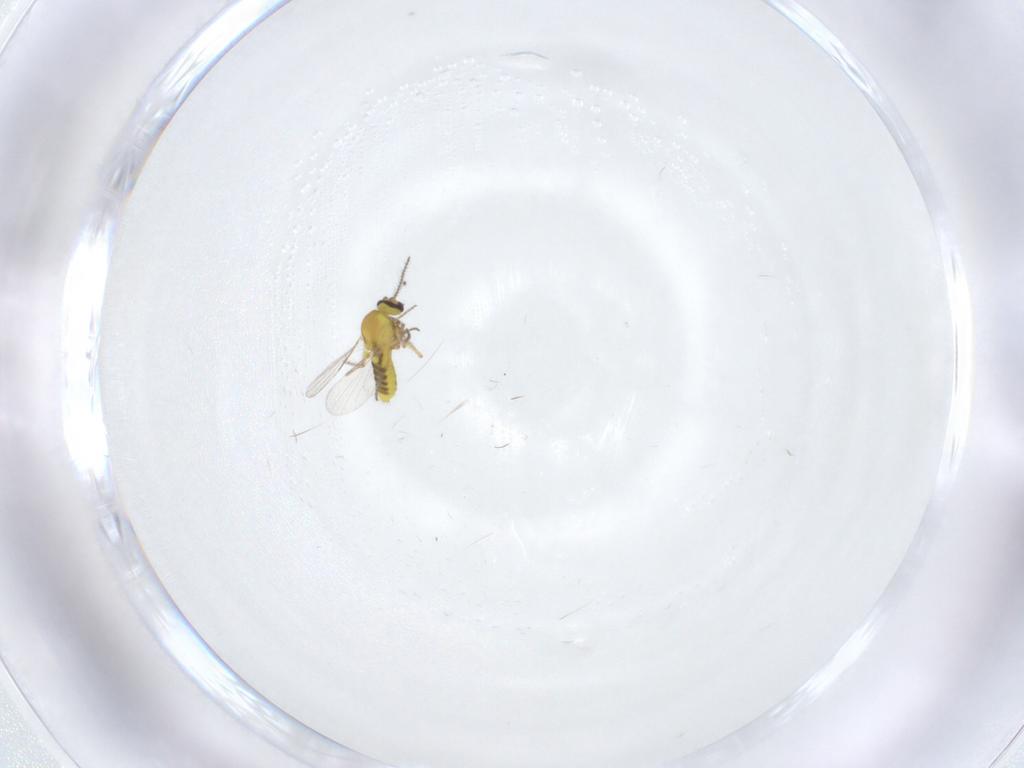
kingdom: Animalia
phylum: Arthropoda
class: Insecta
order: Diptera
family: Ceratopogonidae
